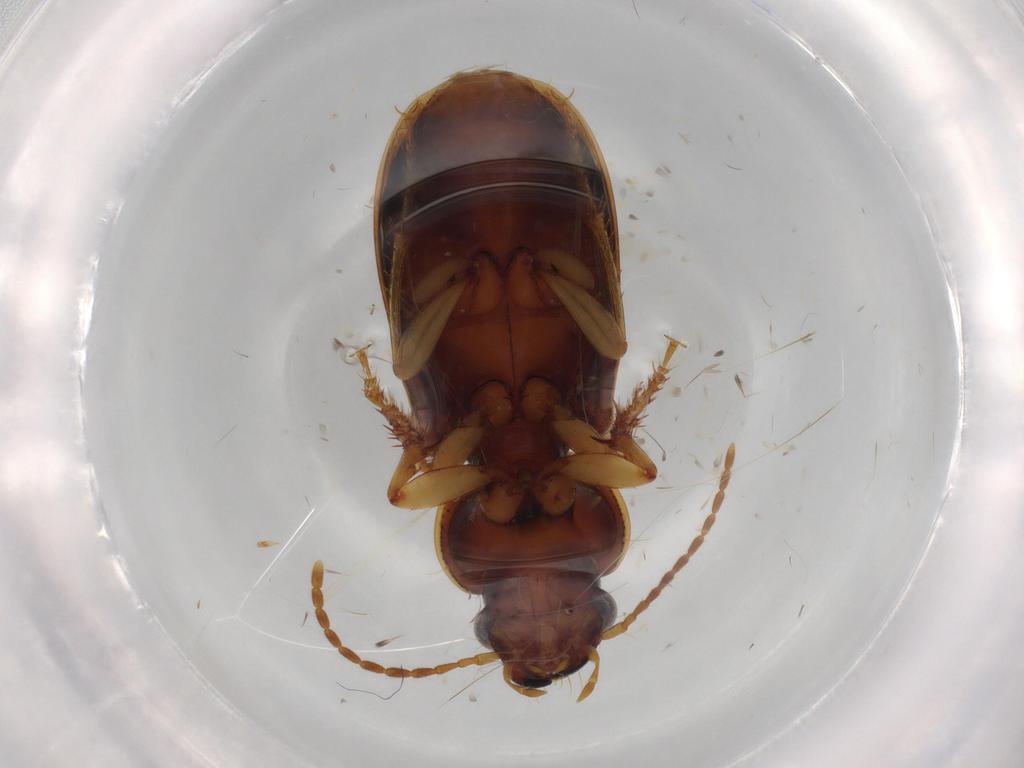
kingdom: Animalia
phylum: Arthropoda
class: Insecta
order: Coleoptera
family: Carabidae
